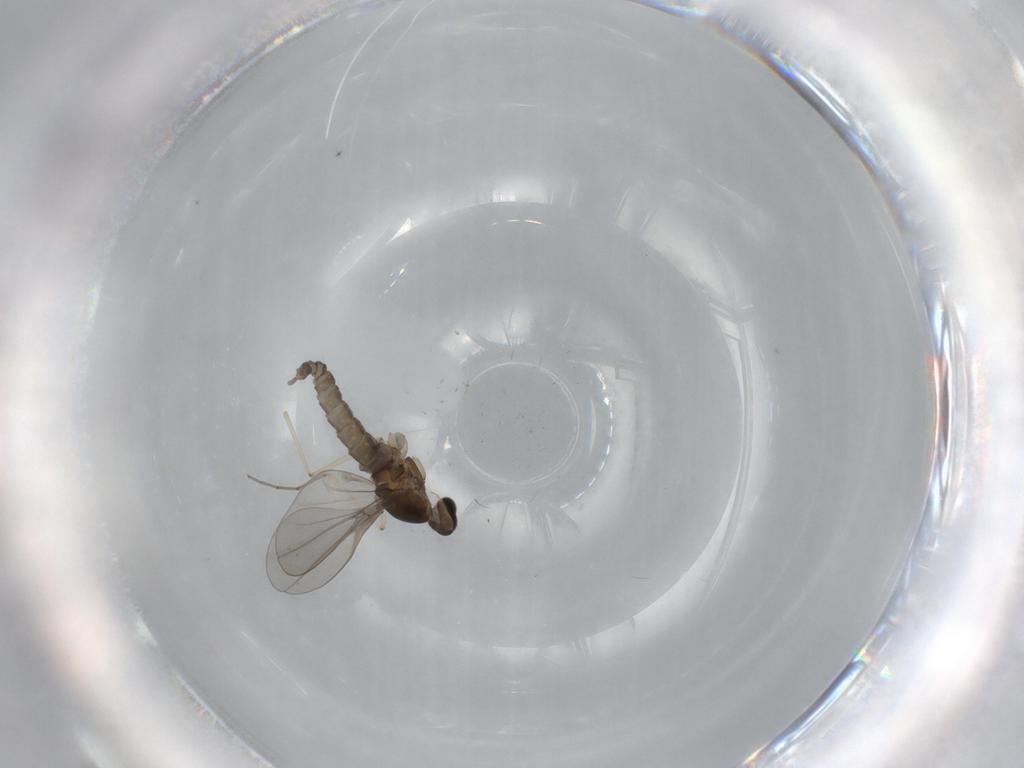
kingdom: Animalia
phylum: Arthropoda
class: Insecta
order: Diptera
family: Cecidomyiidae
